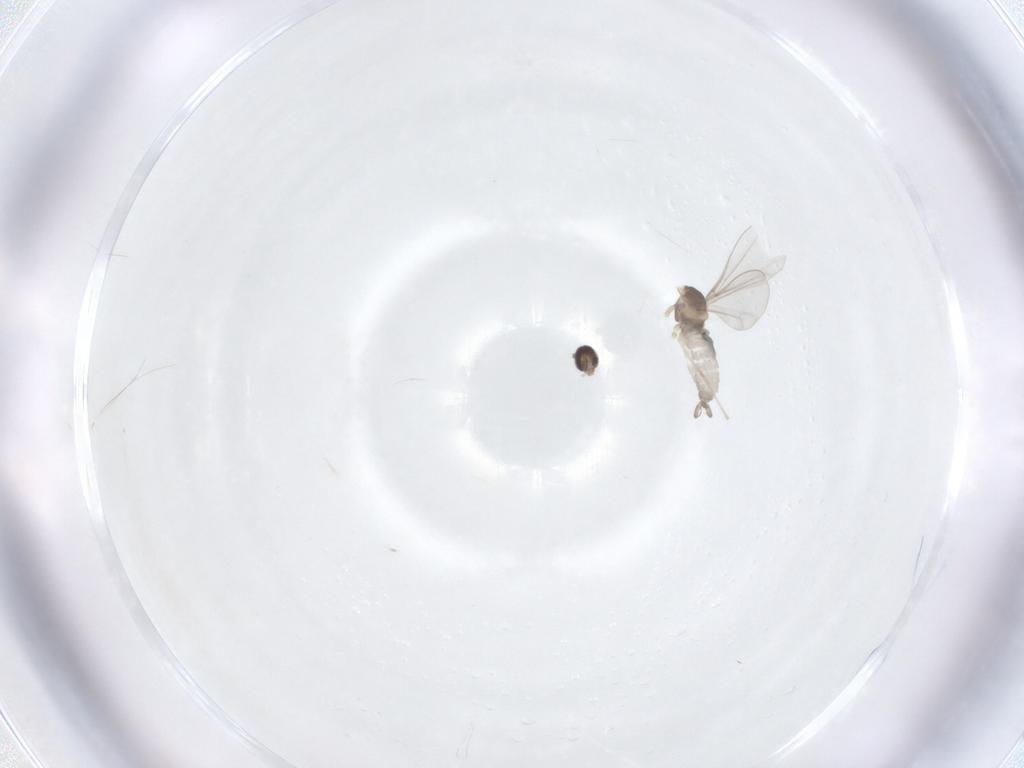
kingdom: Animalia
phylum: Arthropoda
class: Insecta
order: Diptera
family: Cecidomyiidae
